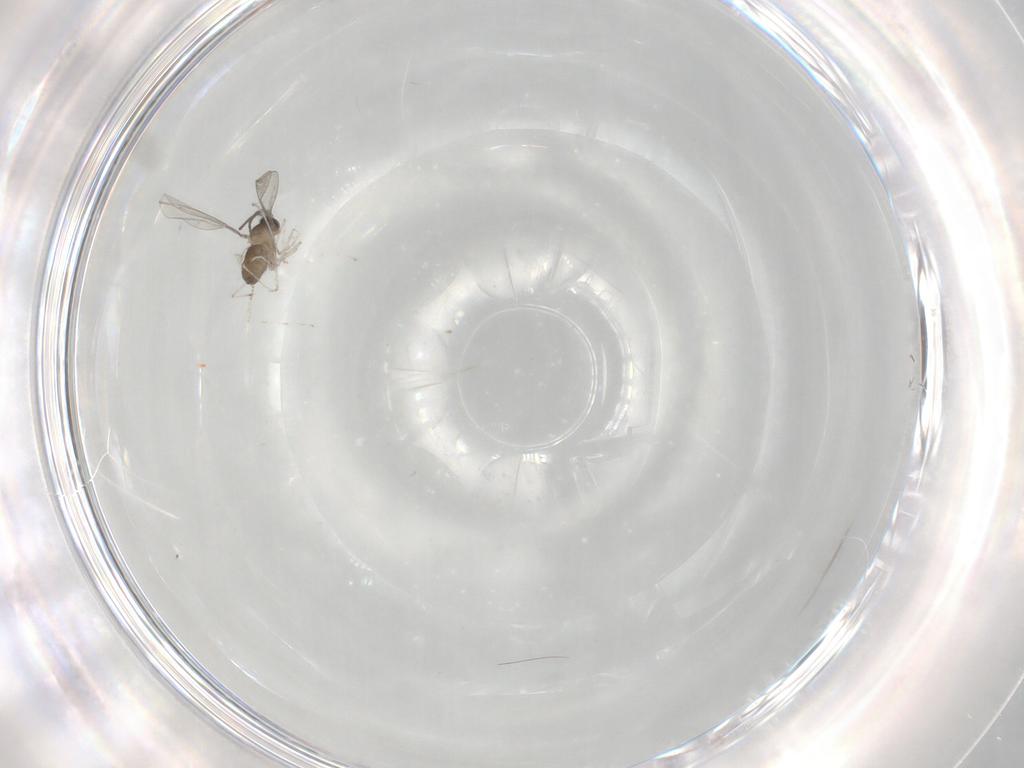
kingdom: Animalia
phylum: Arthropoda
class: Insecta
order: Diptera
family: Cecidomyiidae
